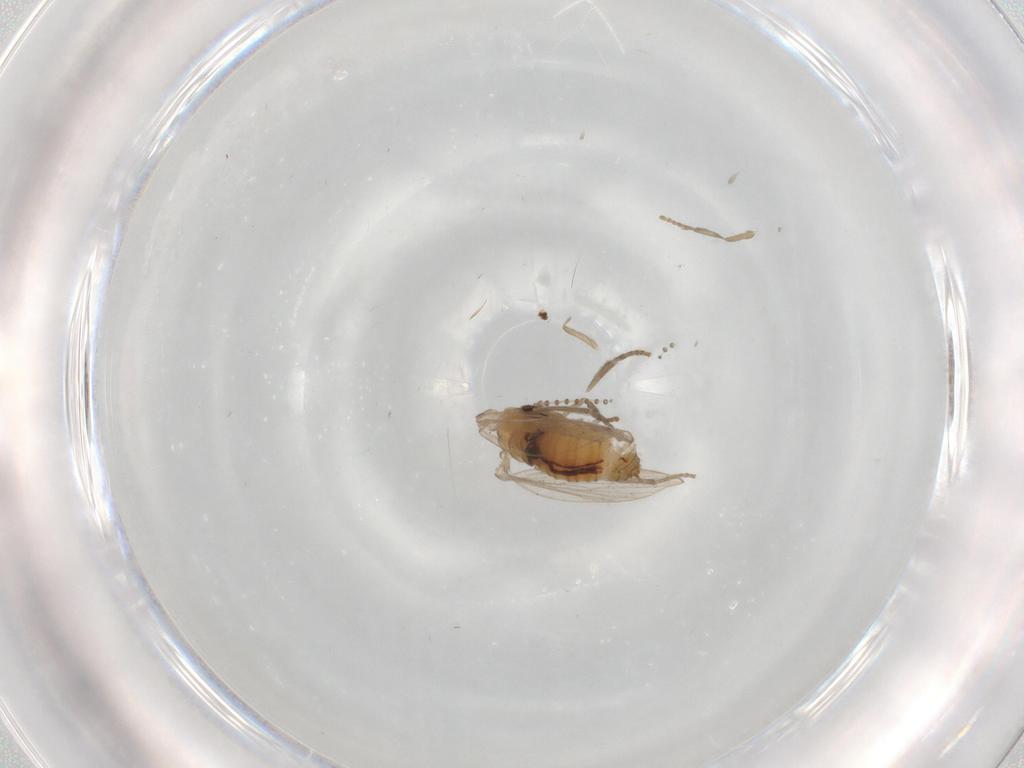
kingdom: Animalia
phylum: Arthropoda
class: Insecta
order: Diptera
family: Psychodidae
